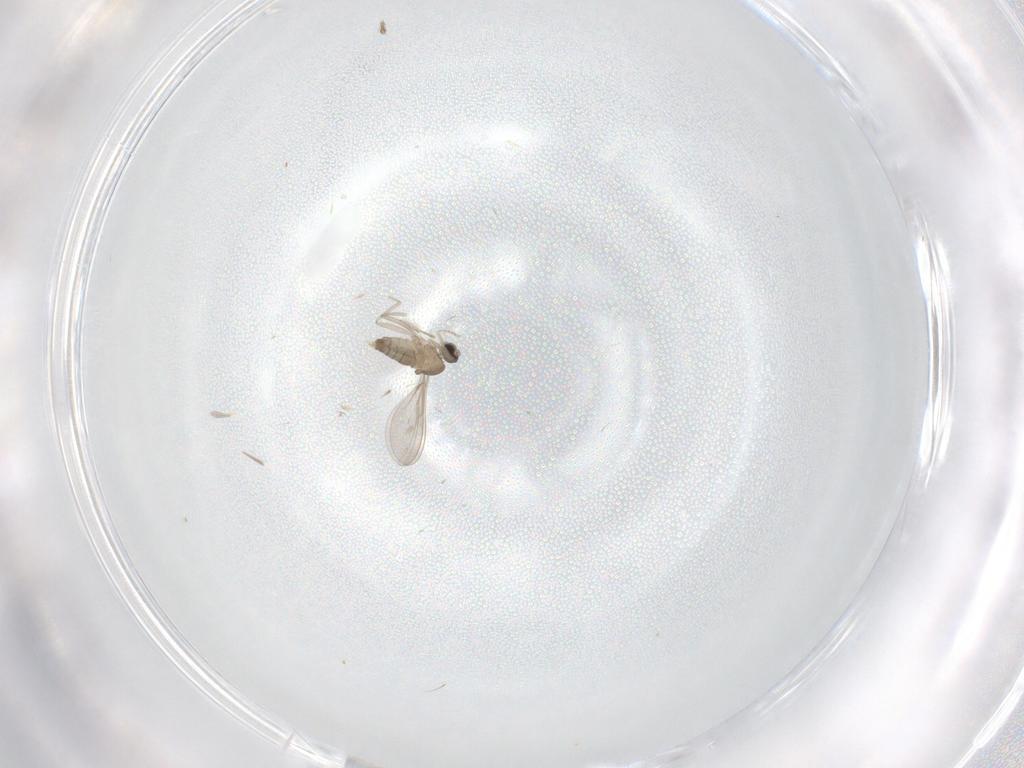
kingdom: Animalia
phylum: Arthropoda
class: Insecta
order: Diptera
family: Cecidomyiidae
